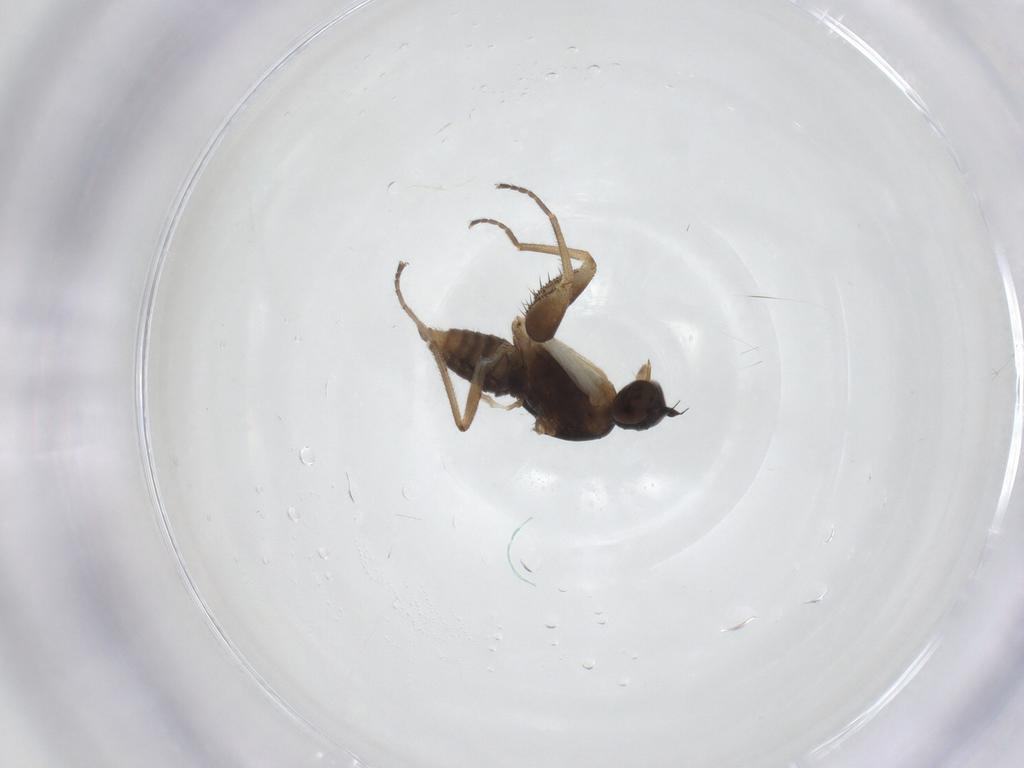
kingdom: Animalia
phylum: Arthropoda
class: Insecta
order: Diptera
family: Empididae
